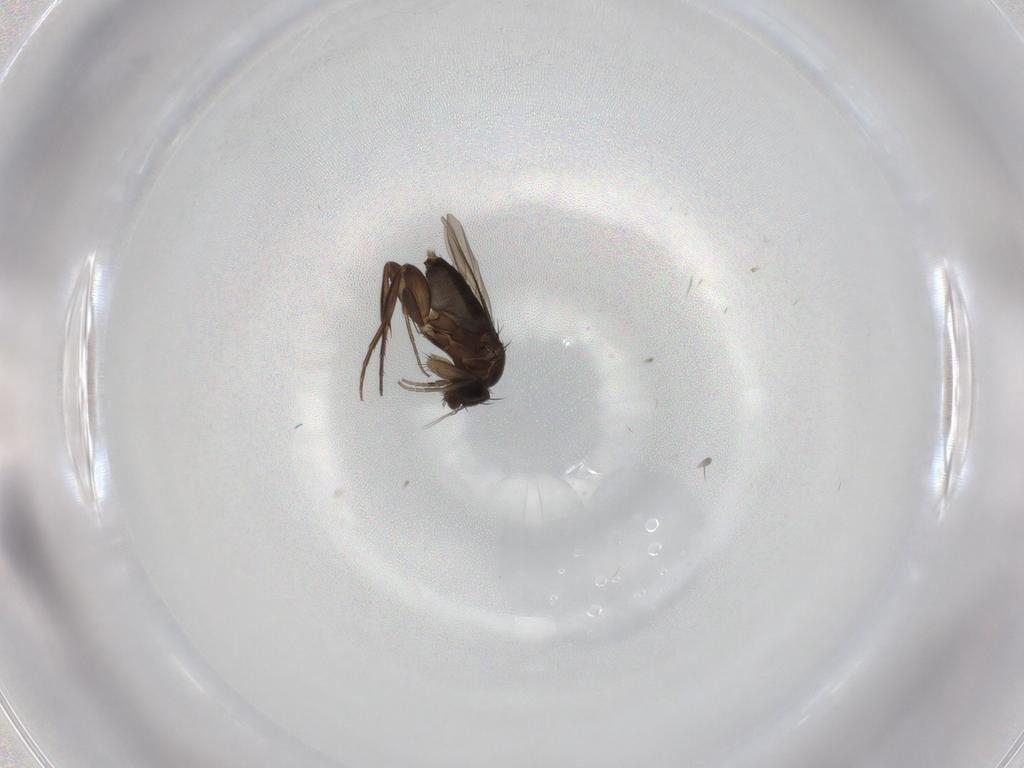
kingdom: Animalia
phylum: Arthropoda
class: Insecta
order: Diptera
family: Phoridae
